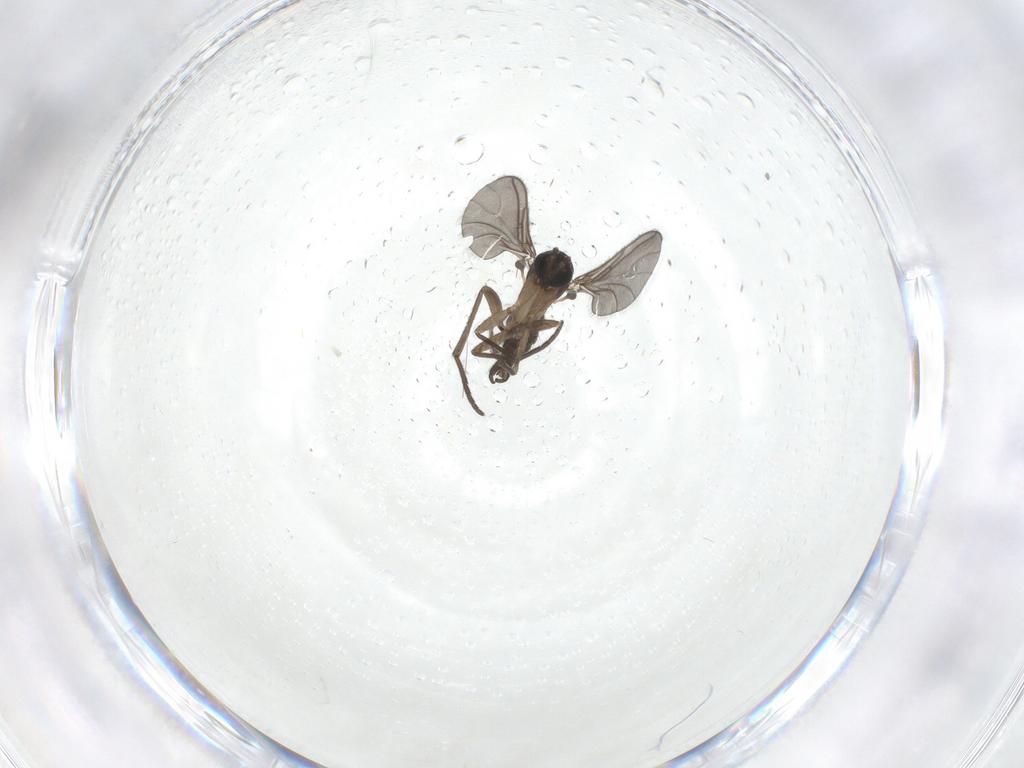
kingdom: Animalia
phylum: Arthropoda
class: Insecta
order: Diptera
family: Sciaridae
